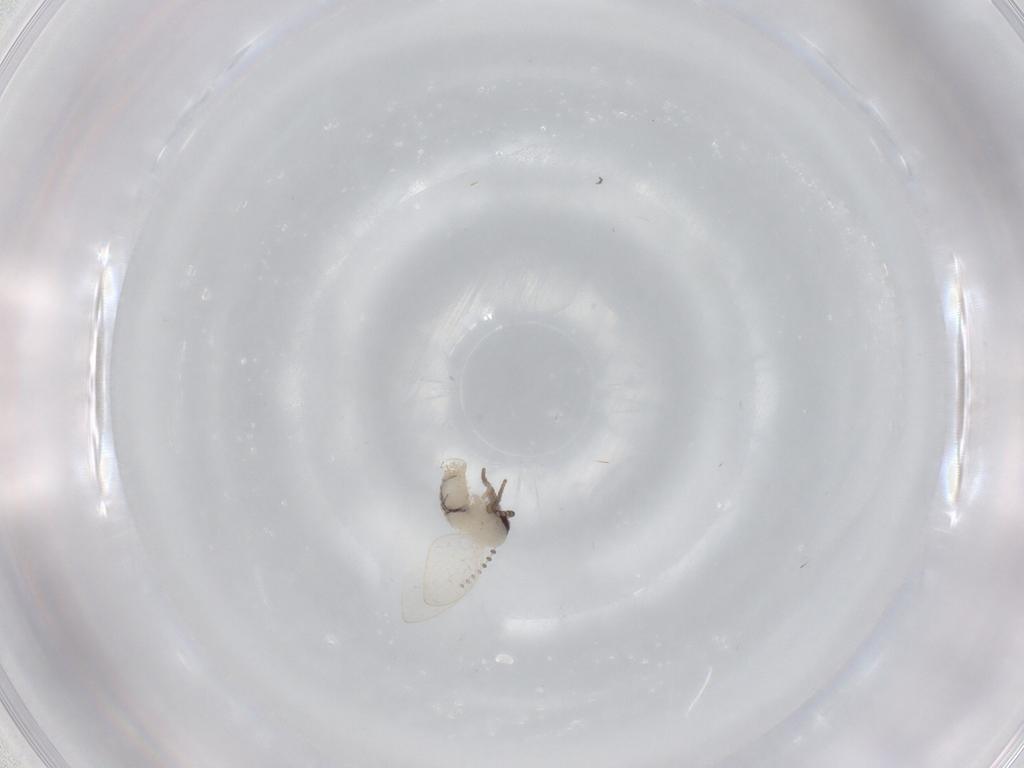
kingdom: Animalia
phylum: Arthropoda
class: Insecta
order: Diptera
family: Psychodidae
